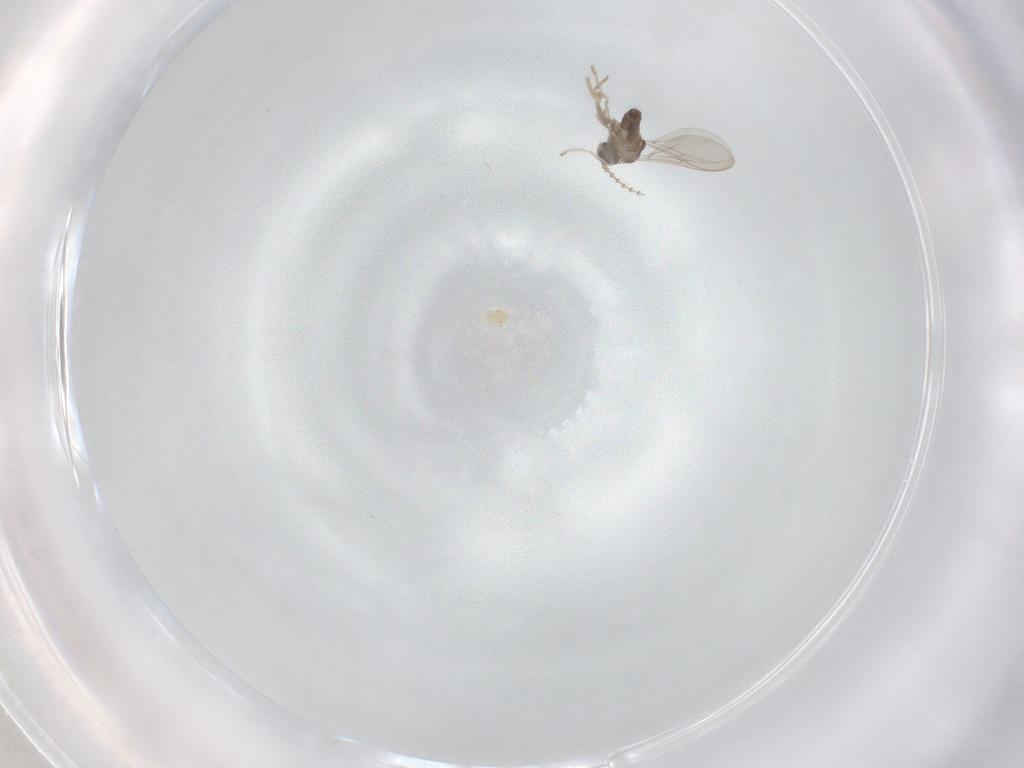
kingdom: Animalia
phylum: Arthropoda
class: Insecta
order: Diptera
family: Cecidomyiidae
